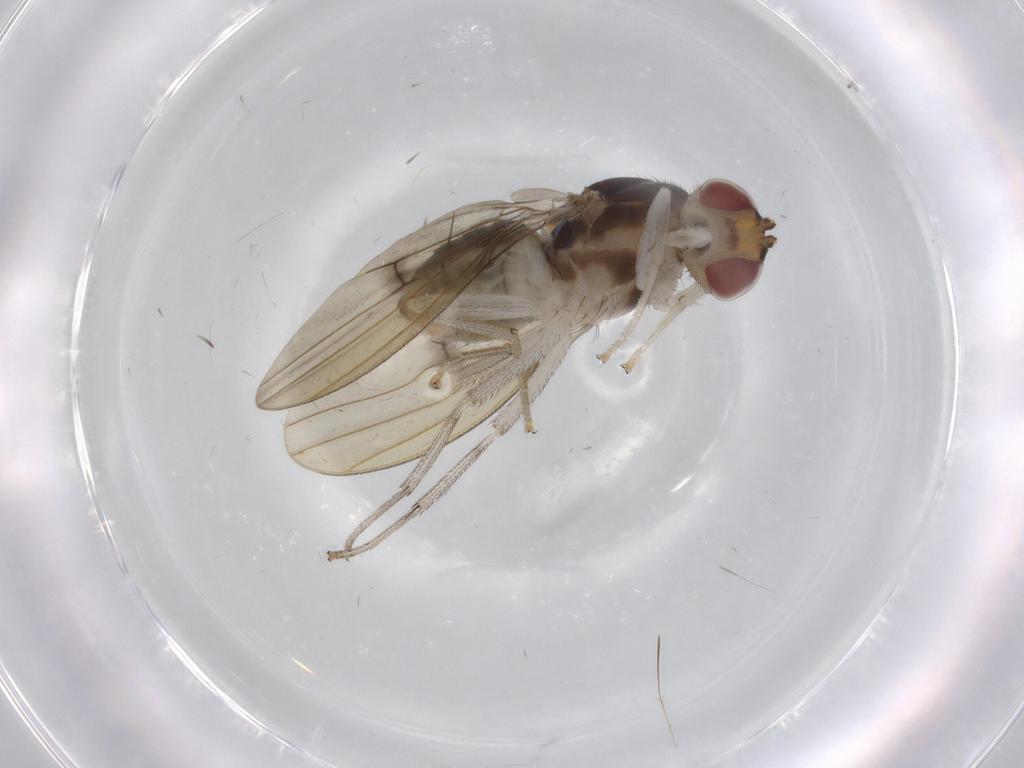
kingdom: Animalia
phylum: Arthropoda
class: Insecta
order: Diptera
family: Lauxaniidae
